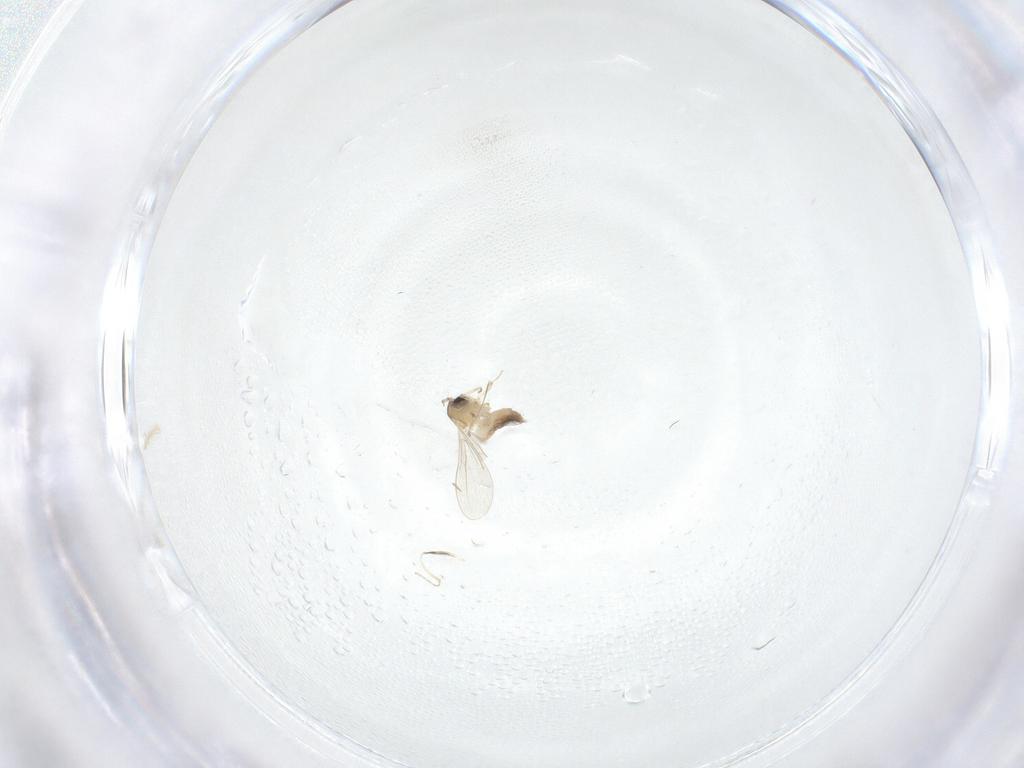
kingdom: Animalia
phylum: Arthropoda
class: Insecta
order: Diptera
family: Cecidomyiidae
